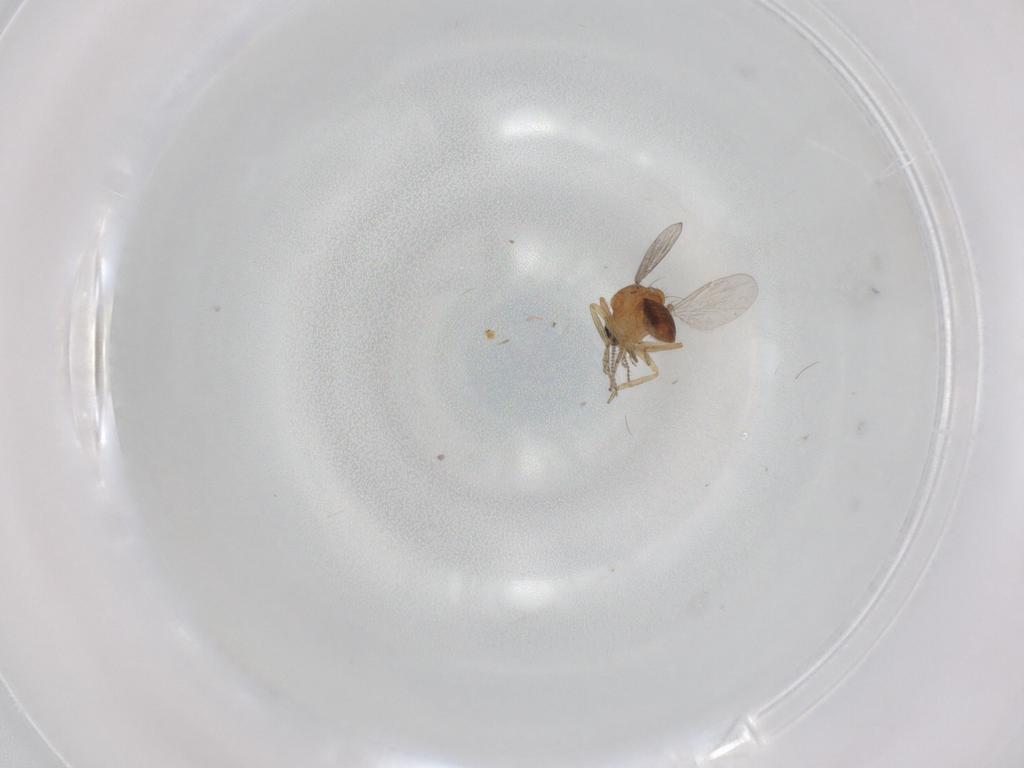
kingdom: Animalia
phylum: Arthropoda
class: Insecta
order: Diptera
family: Ceratopogonidae
